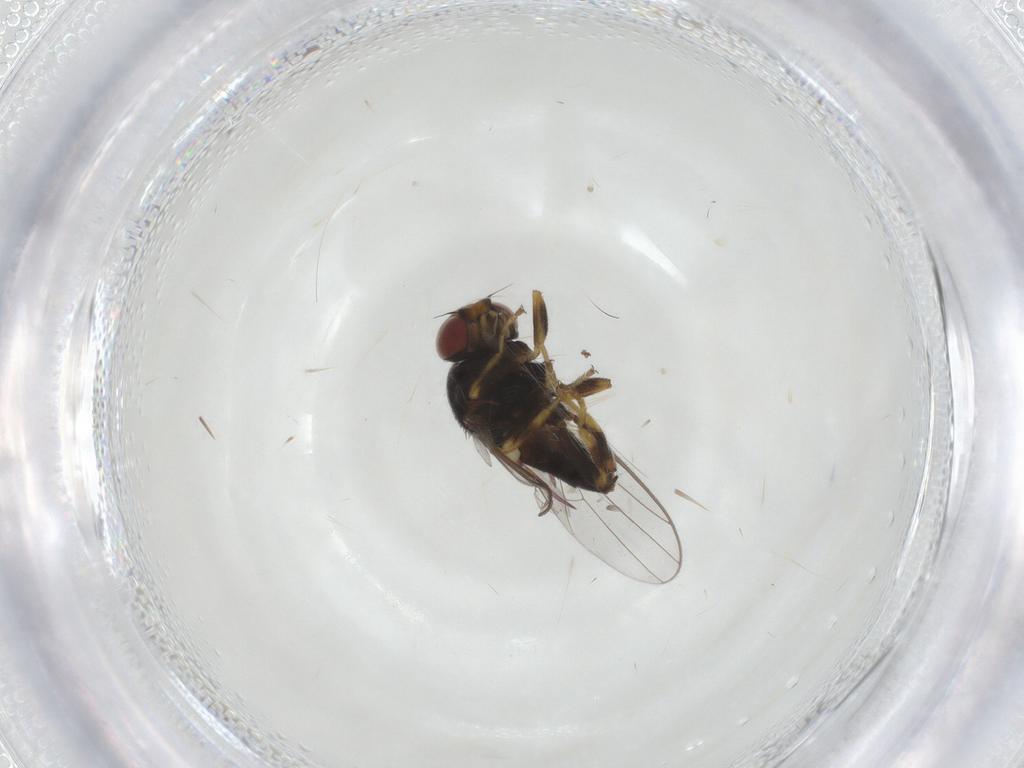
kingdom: Animalia
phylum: Arthropoda
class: Insecta
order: Diptera
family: Chloropidae
